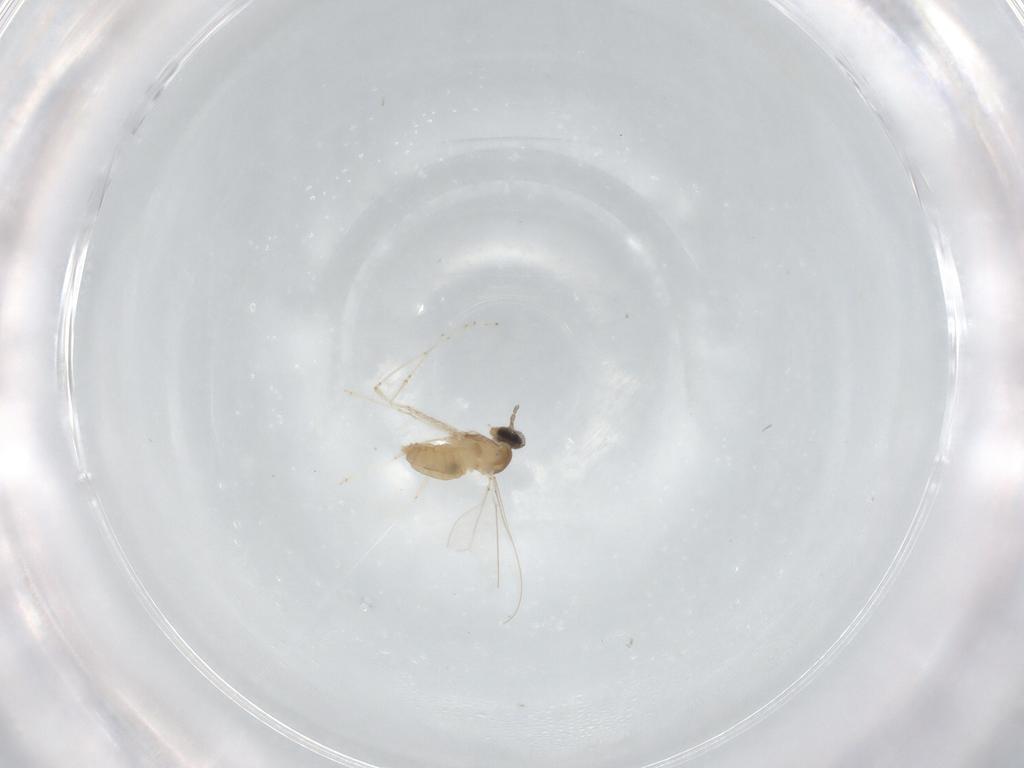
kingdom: Animalia
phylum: Arthropoda
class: Insecta
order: Diptera
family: Cecidomyiidae
